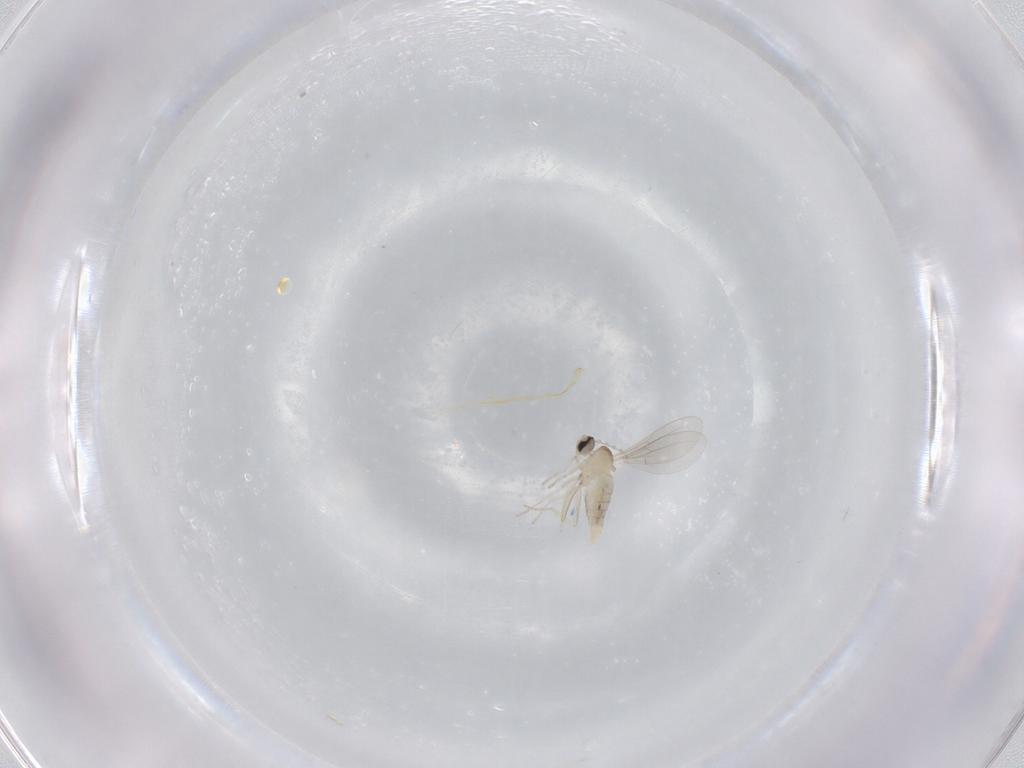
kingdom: Animalia
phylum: Arthropoda
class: Insecta
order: Diptera
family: Cecidomyiidae
